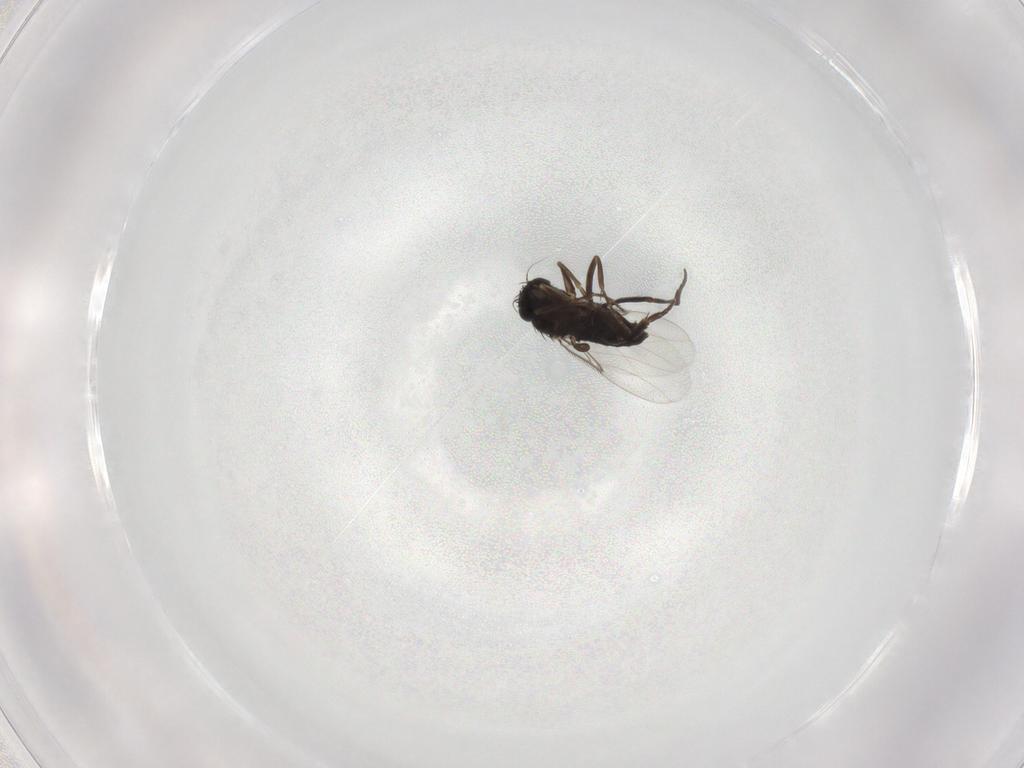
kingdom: Animalia
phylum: Arthropoda
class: Insecta
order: Diptera
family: Phoridae
